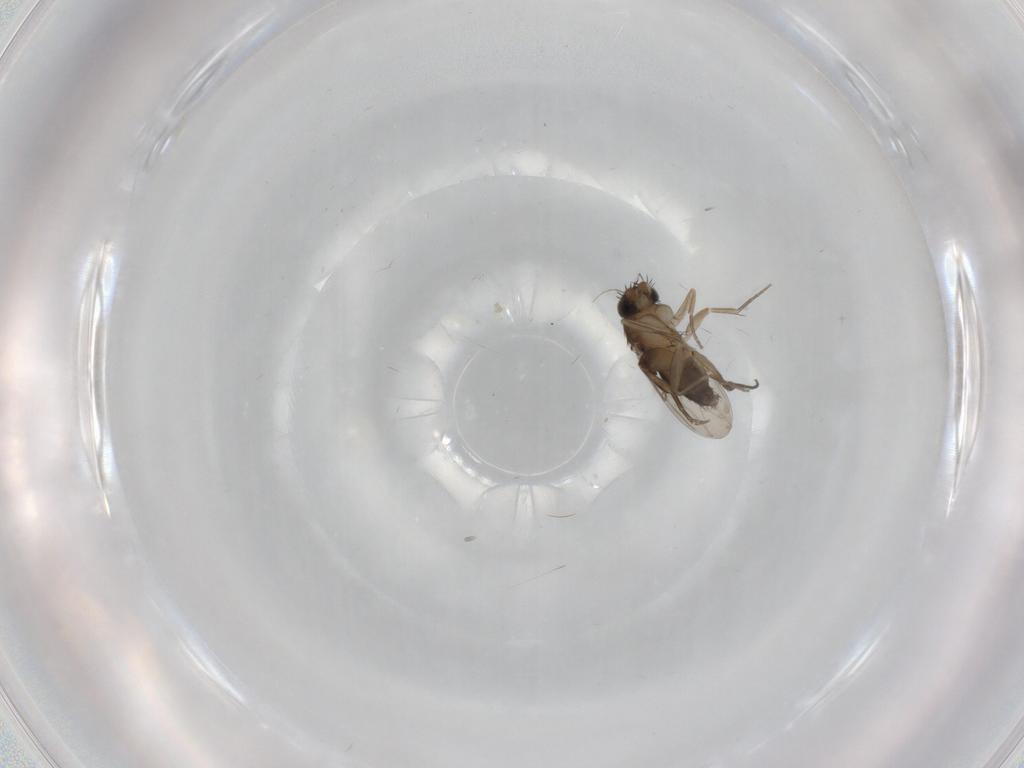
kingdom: Animalia
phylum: Arthropoda
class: Insecta
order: Diptera
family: Phoridae
